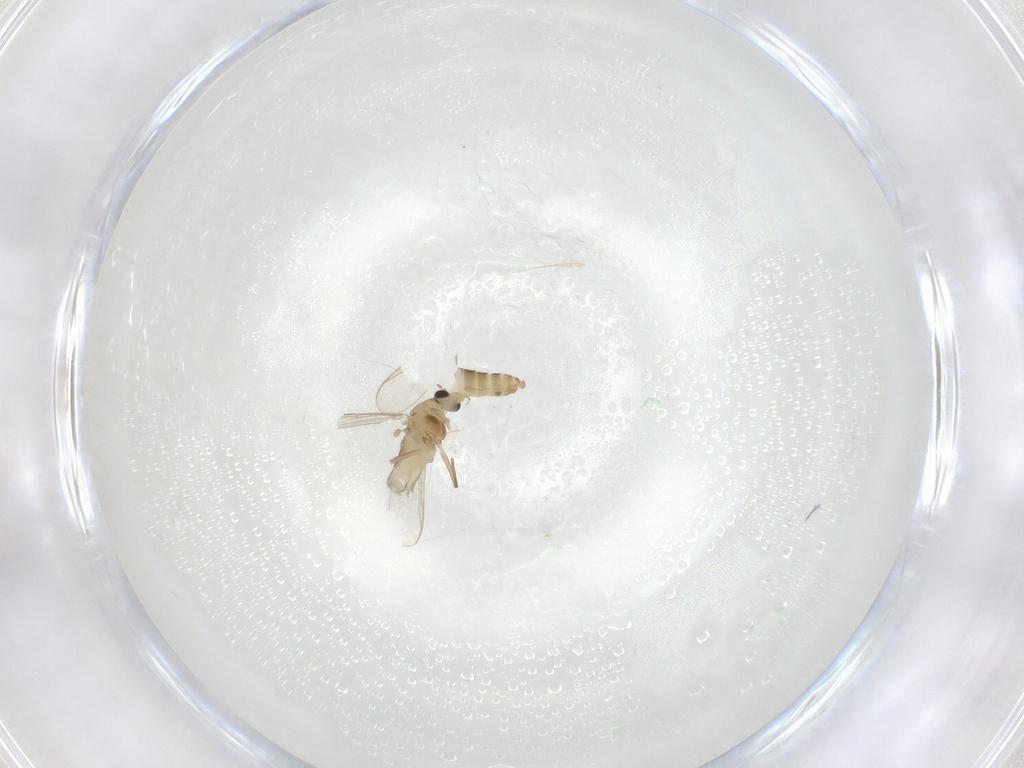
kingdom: Animalia
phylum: Arthropoda
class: Insecta
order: Diptera
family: Chironomidae
